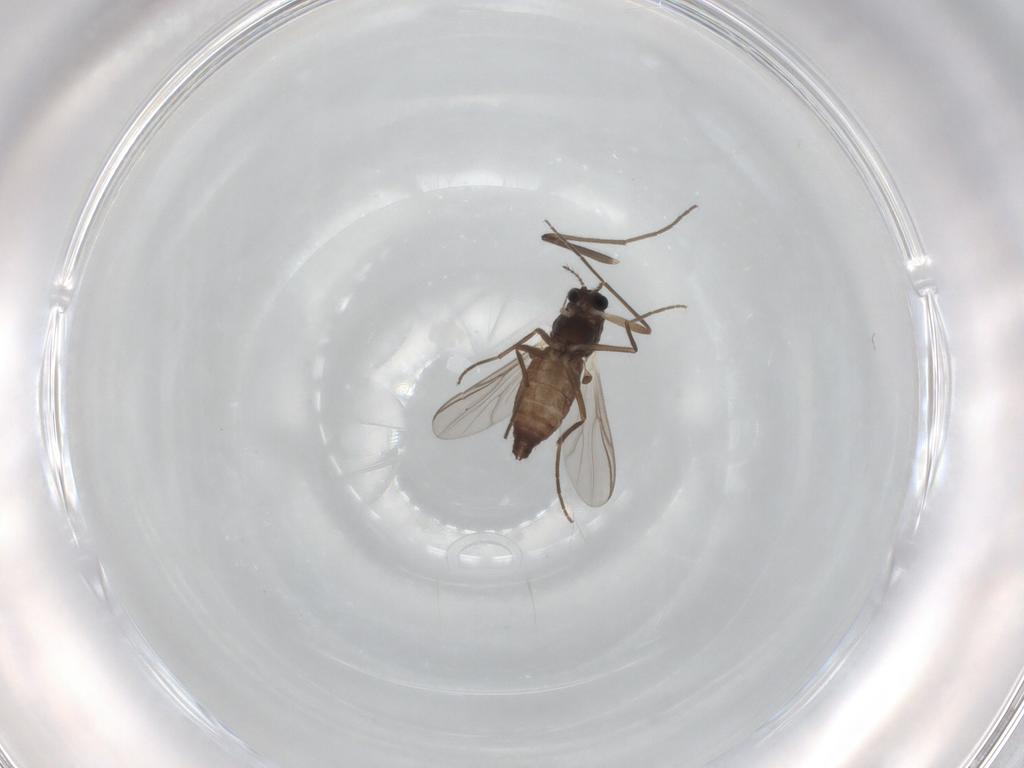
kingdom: Animalia
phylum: Arthropoda
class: Insecta
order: Diptera
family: Chironomidae
